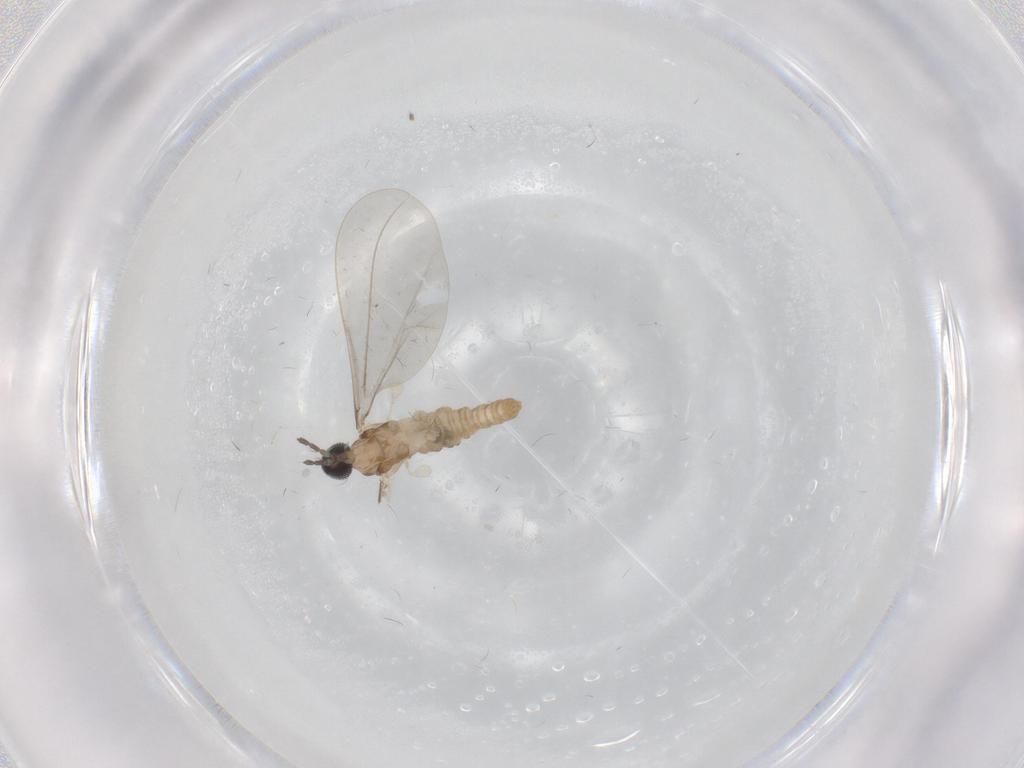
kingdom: Animalia
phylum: Arthropoda
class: Insecta
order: Diptera
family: Cecidomyiidae
